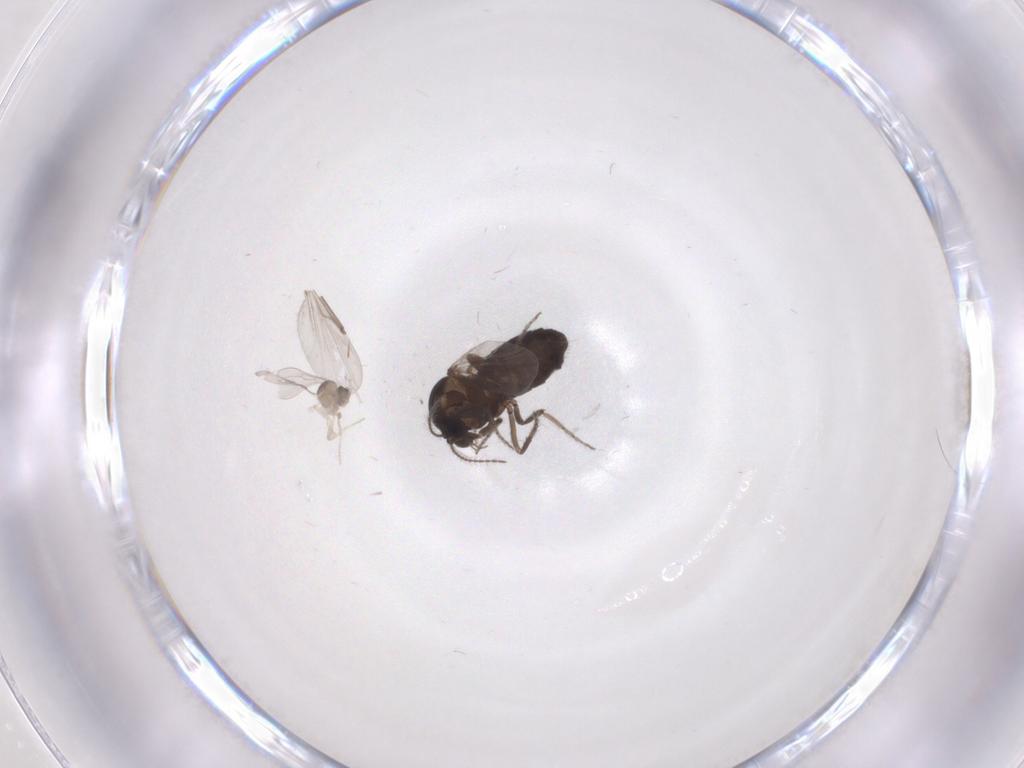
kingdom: Animalia
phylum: Arthropoda
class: Insecta
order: Diptera
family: Ceratopogonidae
